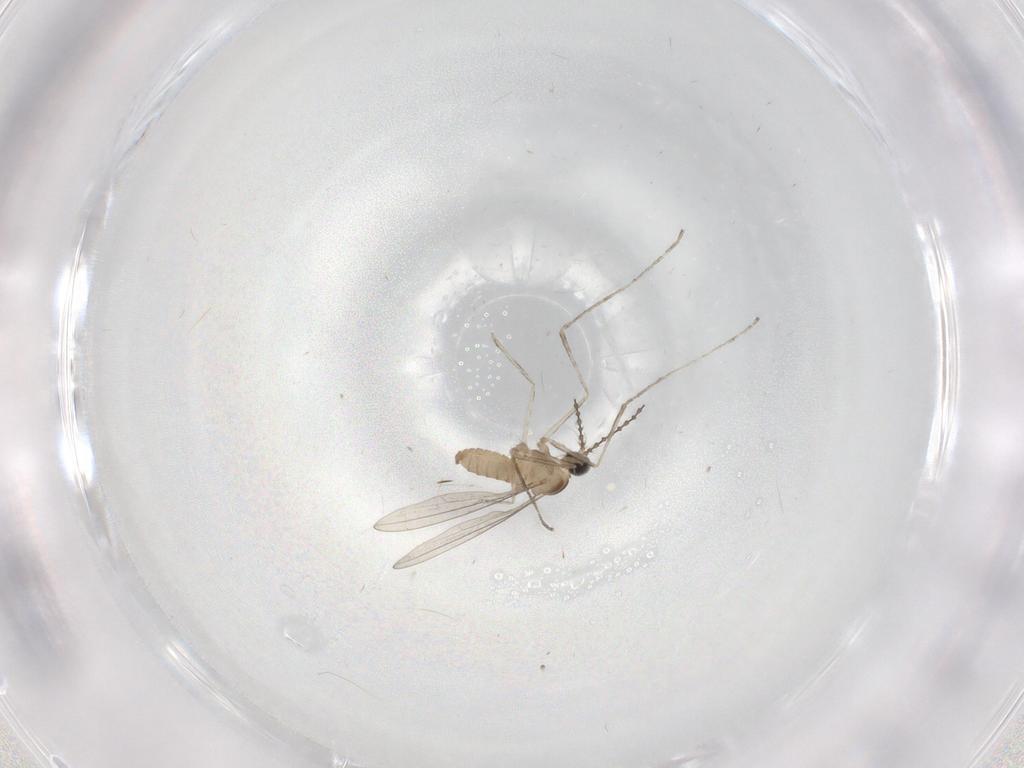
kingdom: Animalia
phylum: Arthropoda
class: Insecta
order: Diptera
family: Cecidomyiidae
